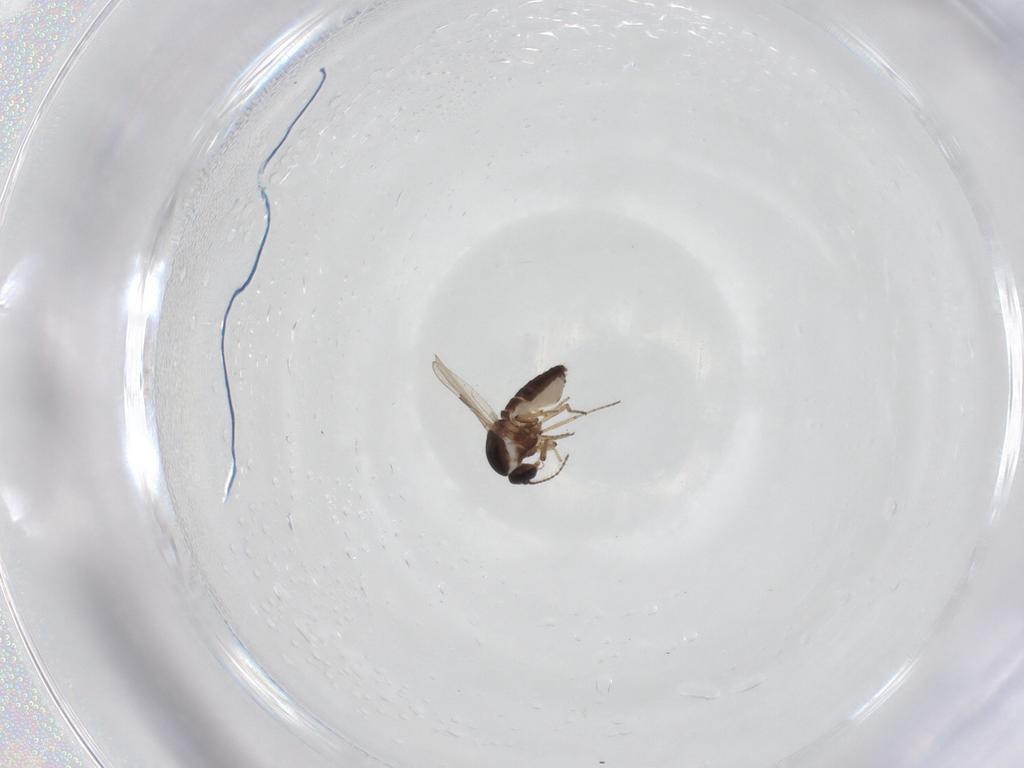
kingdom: Animalia
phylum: Arthropoda
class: Insecta
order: Diptera
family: Ceratopogonidae
